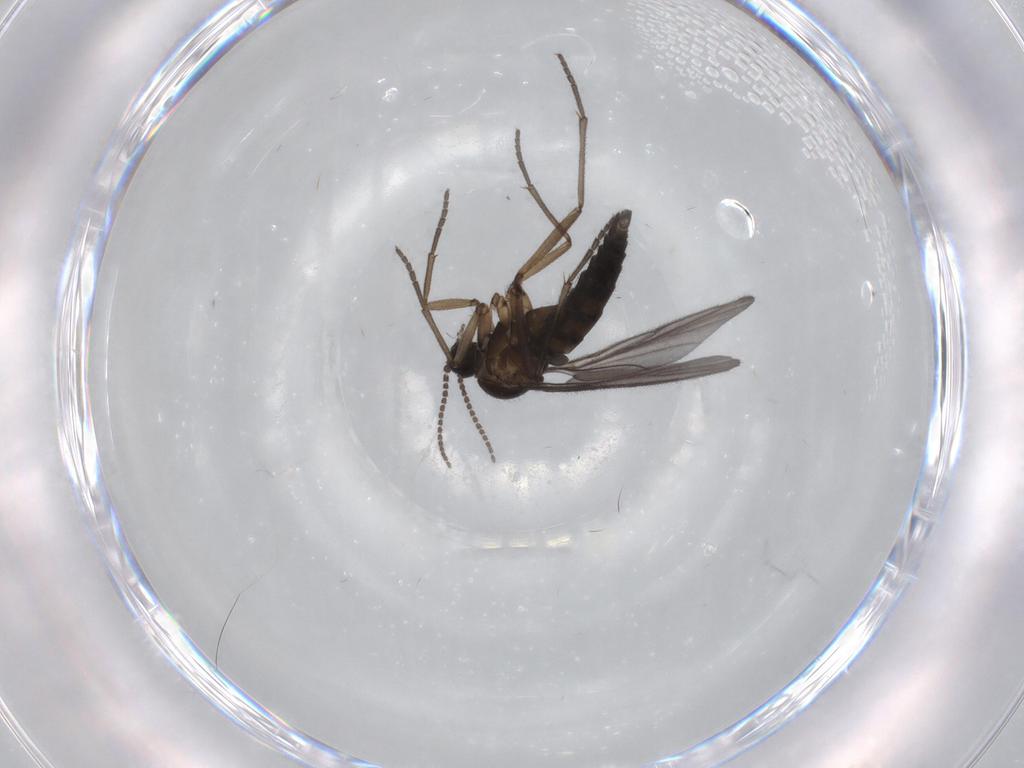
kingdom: Animalia
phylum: Arthropoda
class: Insecta
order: Diptera
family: Sciaridae
